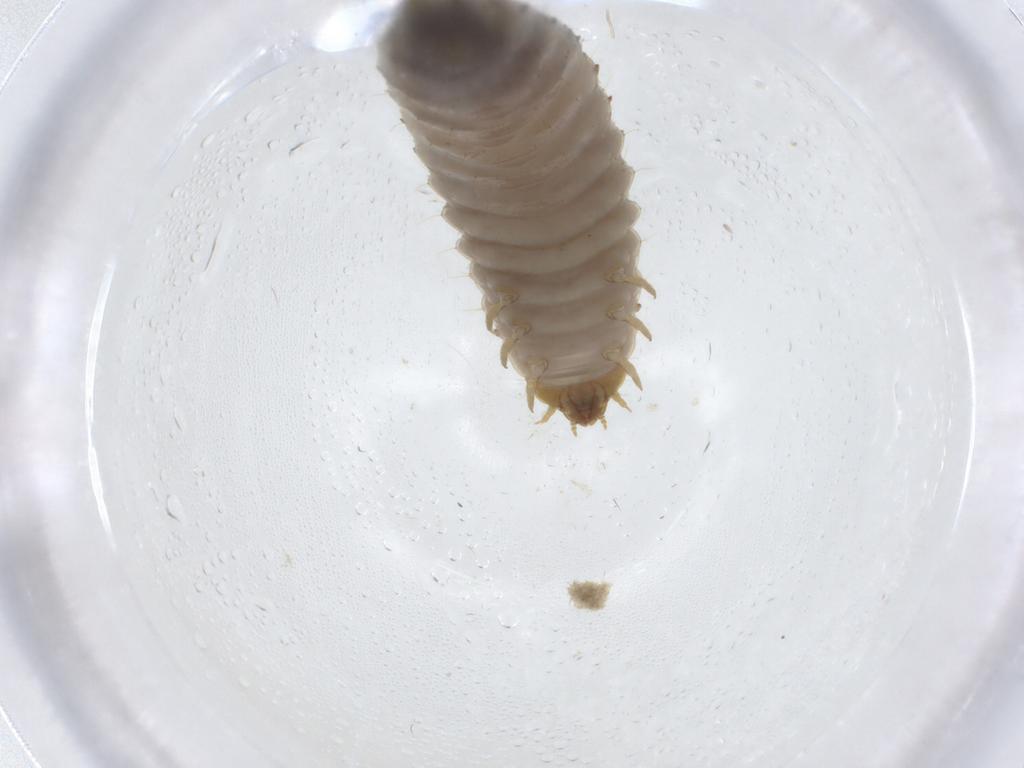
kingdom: Animalia
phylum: Arthropoda
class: Insecta
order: Coleoptera
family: Nitidulidae
